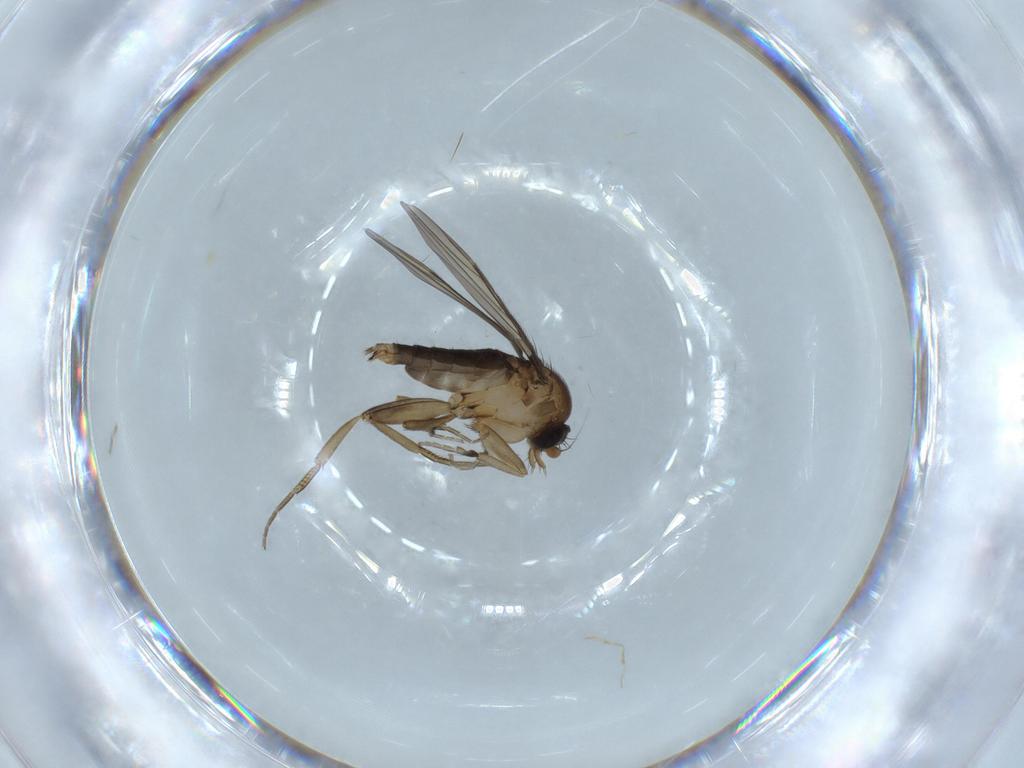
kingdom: Animalia
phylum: Arthropoda
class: Insecta
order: Diptera
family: Phoridae
